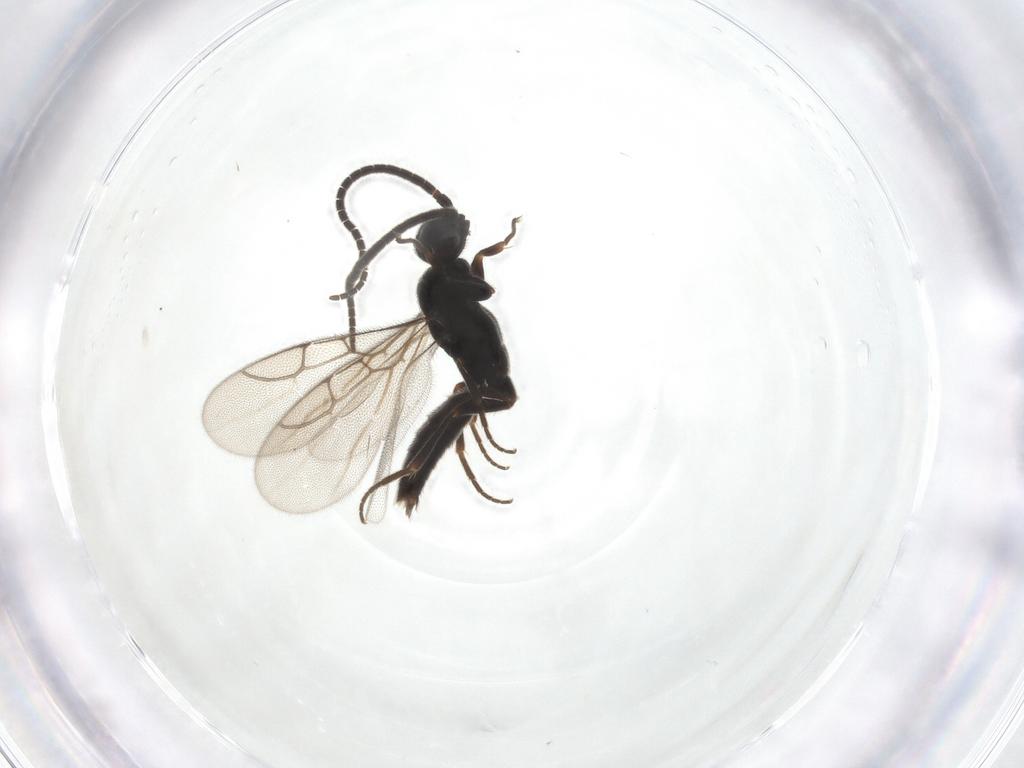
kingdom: Animalia
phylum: Arthropoda
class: Insecta
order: Hymenoptera
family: Sclerogibbidae
